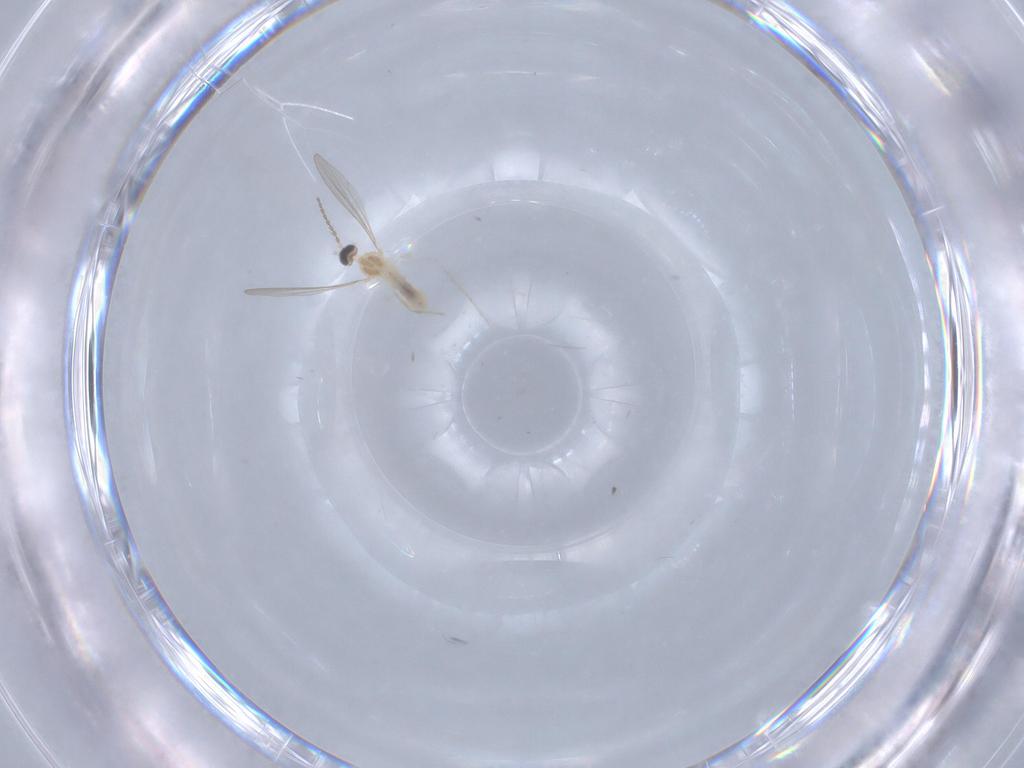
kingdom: Animalia
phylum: Arthropoda
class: Insecta
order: Diptera
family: Cecidomyiidae
